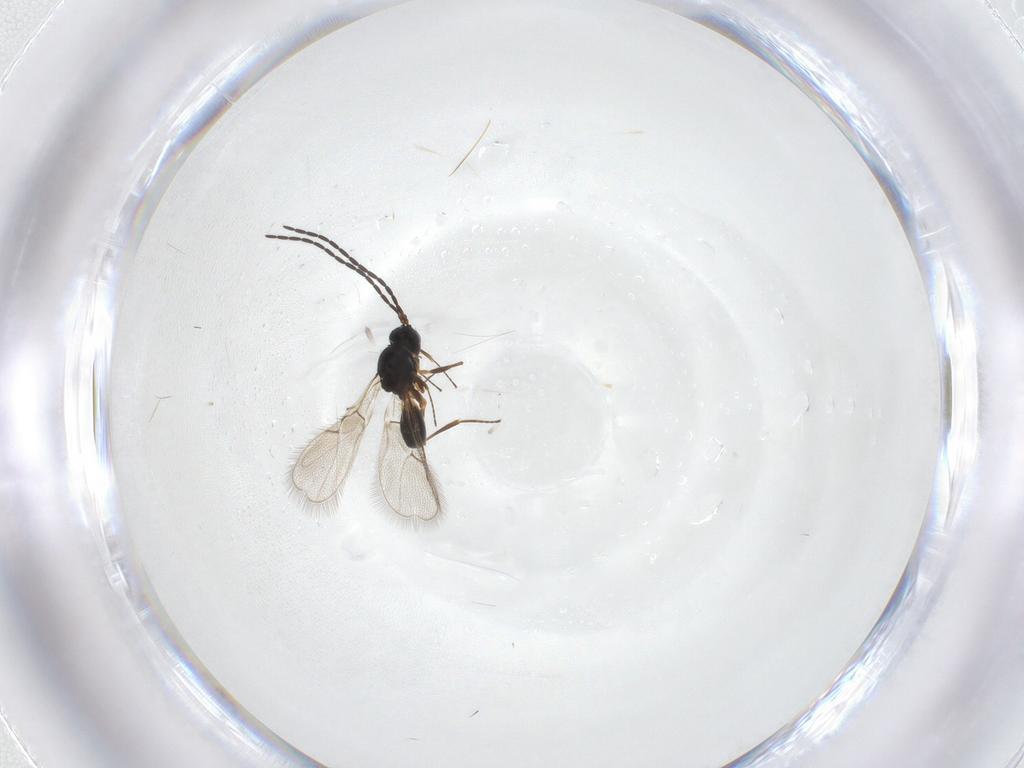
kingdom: Animalia
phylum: Arthropoda
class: Insecta
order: Hymenoptera
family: Figitidae
